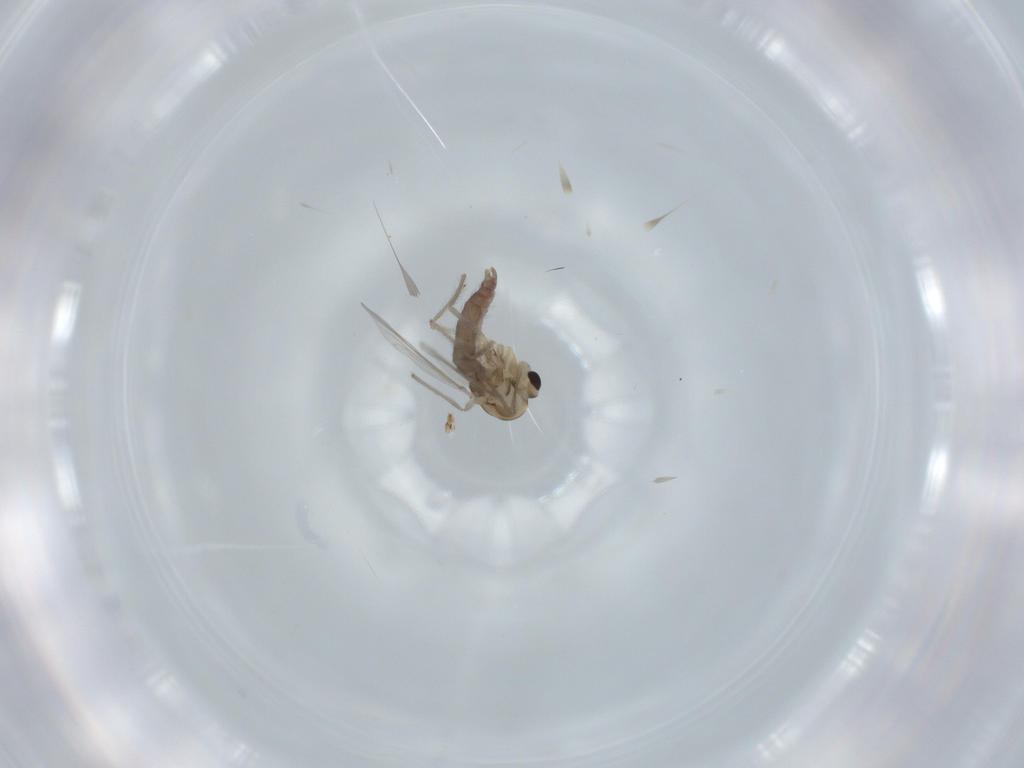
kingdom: Animalia
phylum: Arthropoda
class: Insecta
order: Diptera
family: Chironomidae
